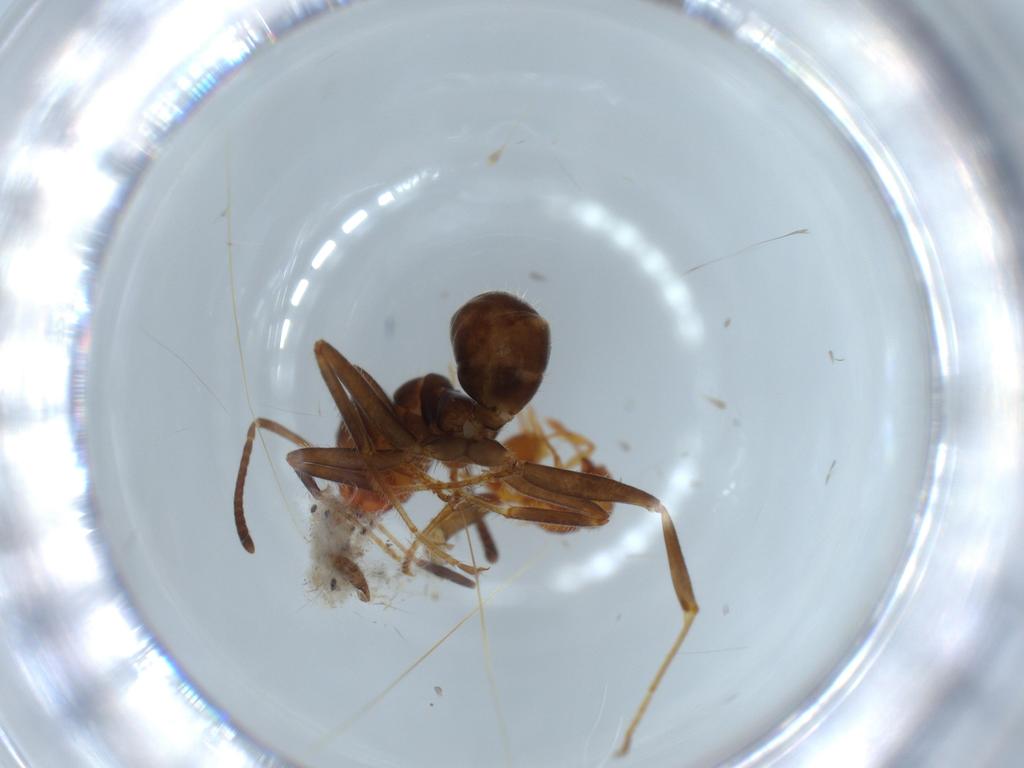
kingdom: Animalia
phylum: Arthropoda
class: Insecta
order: Hymenoptera
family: Formicidae
